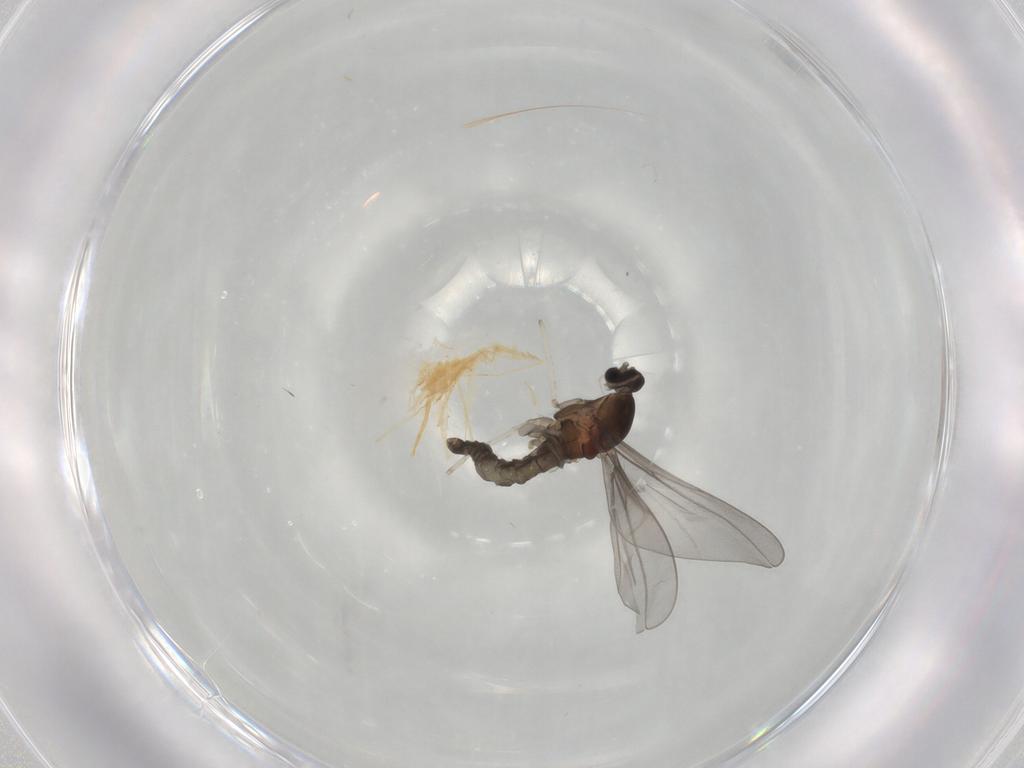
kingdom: Animalia
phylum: Arthropoda
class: Insecta
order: Diptera
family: Cecidomyiidae
